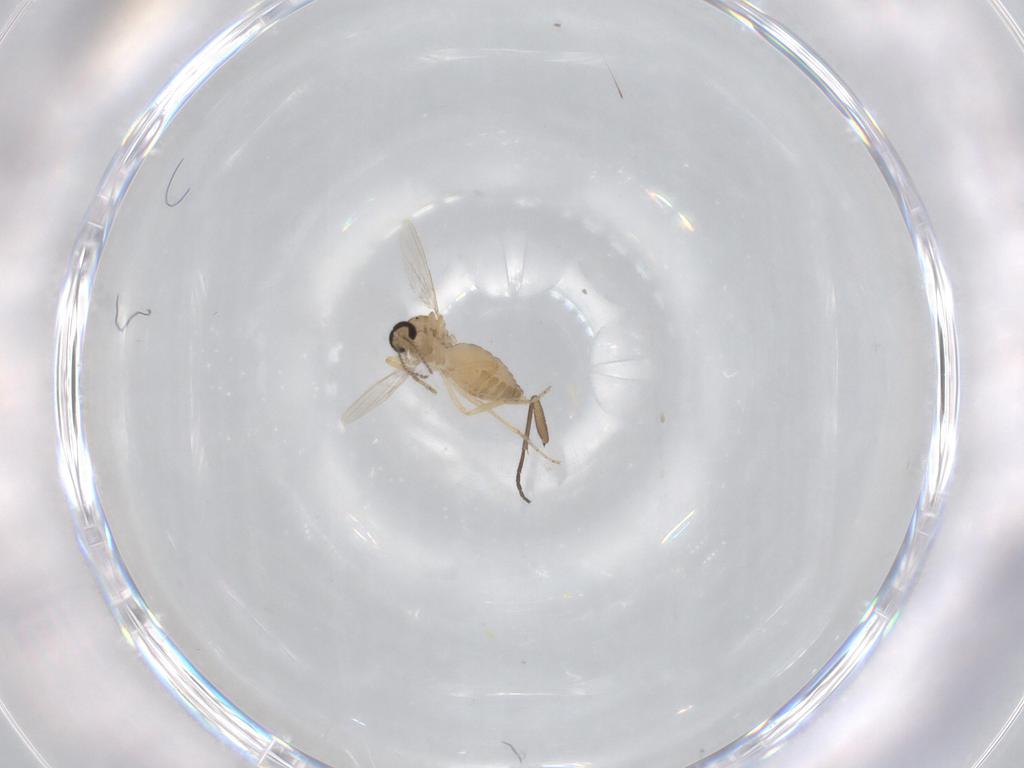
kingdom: Animalia
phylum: Arthropoda
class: Insecta
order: Diptera
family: Ceratopogonidae
